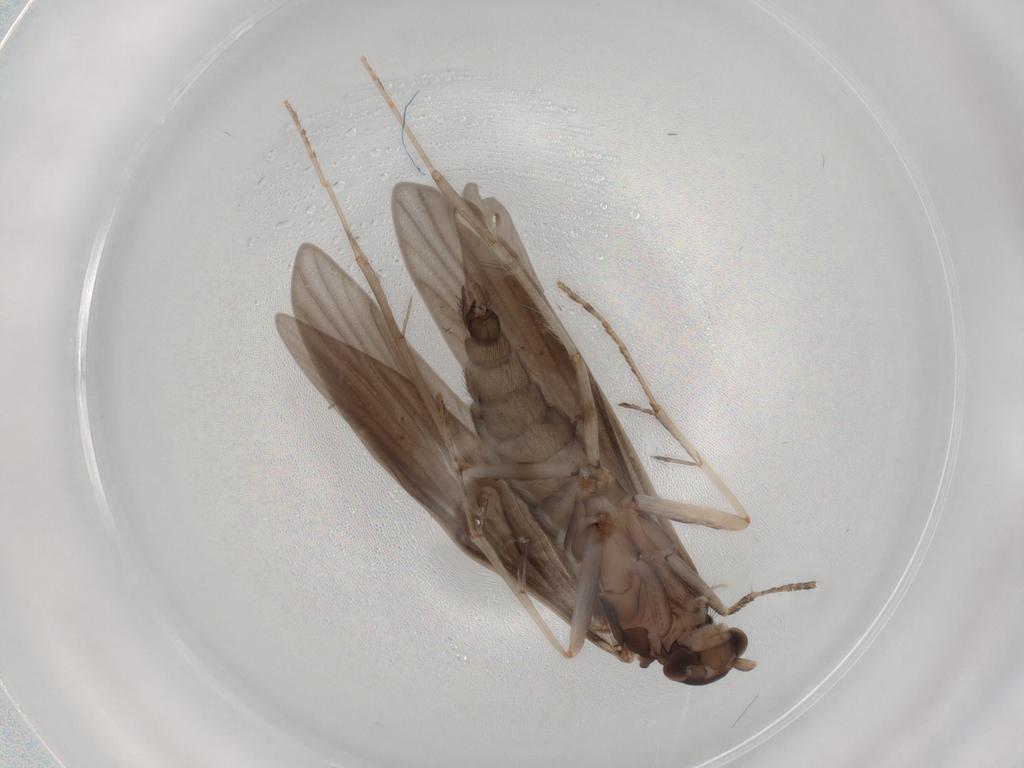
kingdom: Animalia
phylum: Arthropoda
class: Insecta
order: Trichoptera
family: Xiphocentronidae
